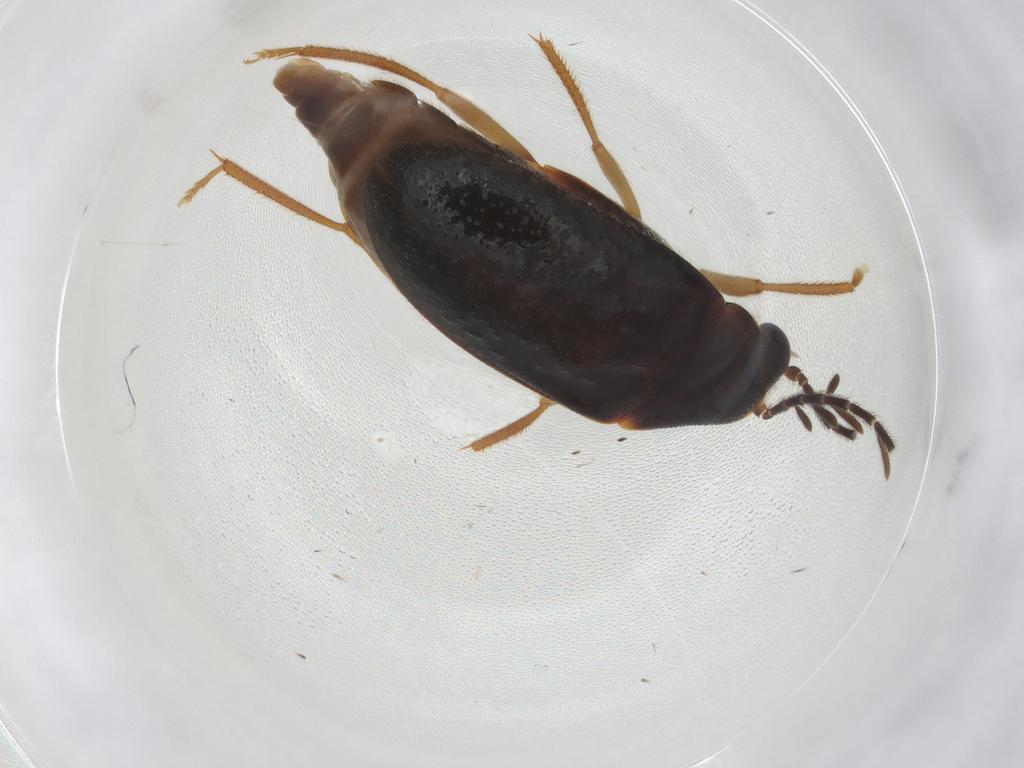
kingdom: Animalia
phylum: Arthropoda
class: Insecta
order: Coleoptera
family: Ptilodactylidae
